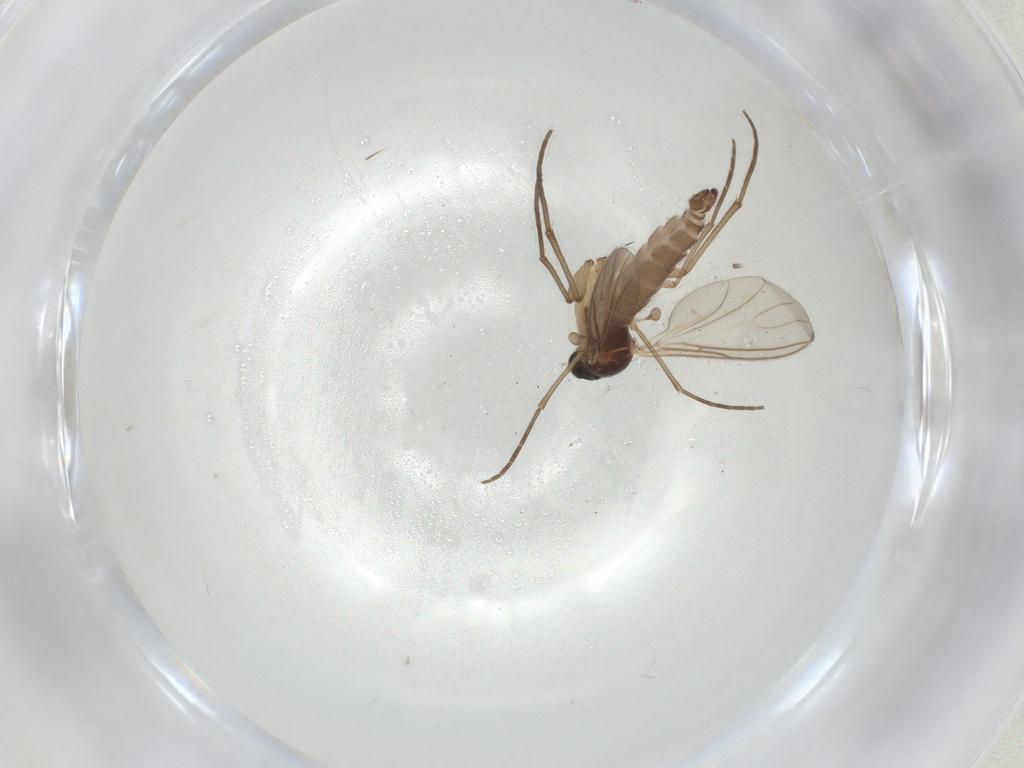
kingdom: Animalia
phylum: Arthropoda
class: Insecta
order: Diptera
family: Sciaridae
